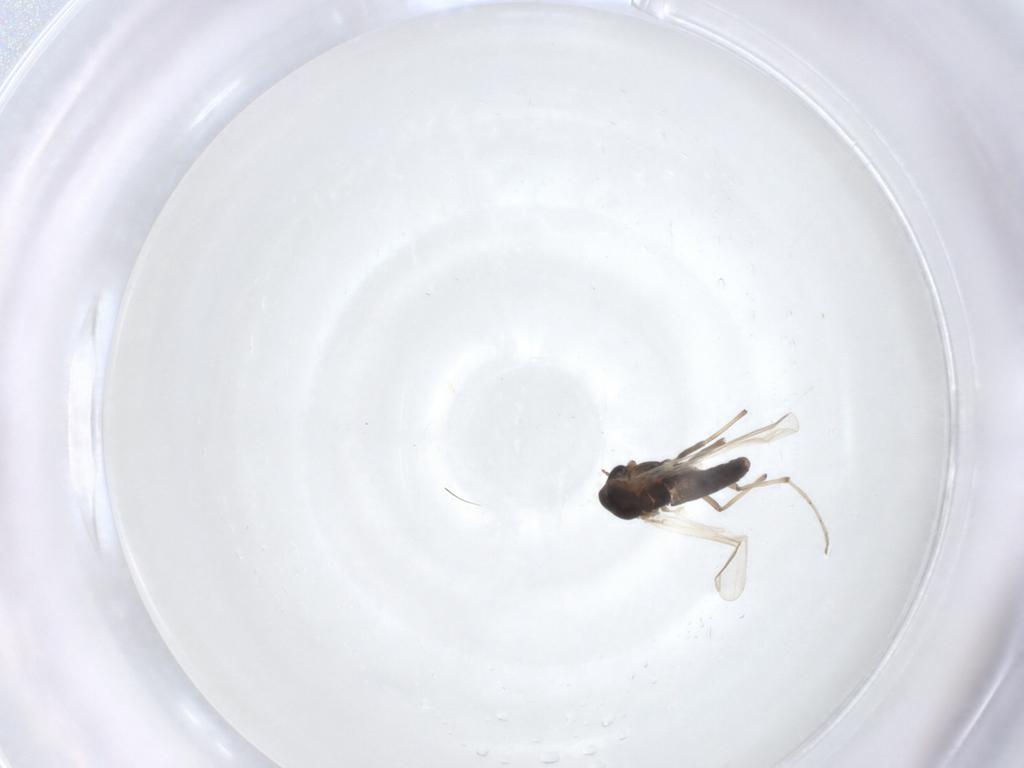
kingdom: Animalia
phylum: Arthropoda
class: Insecta
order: Diptera
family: Chironomidae
